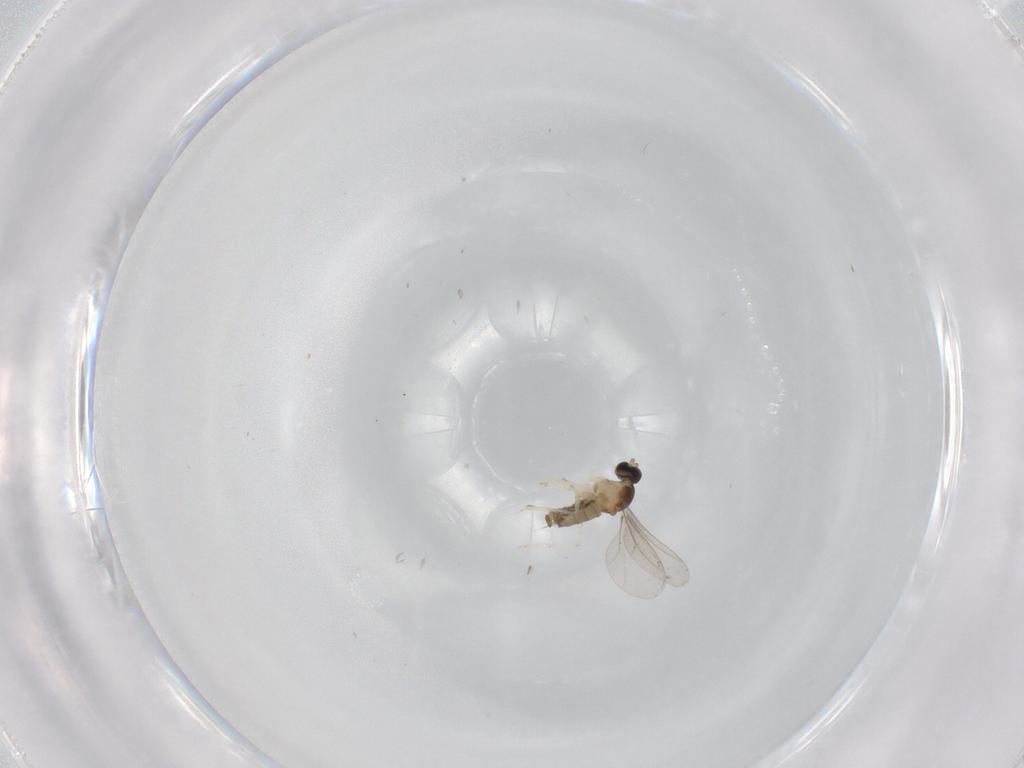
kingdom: Animalia
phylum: Arthropoda
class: Insecta
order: Diptera
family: Cecidomyiidae
